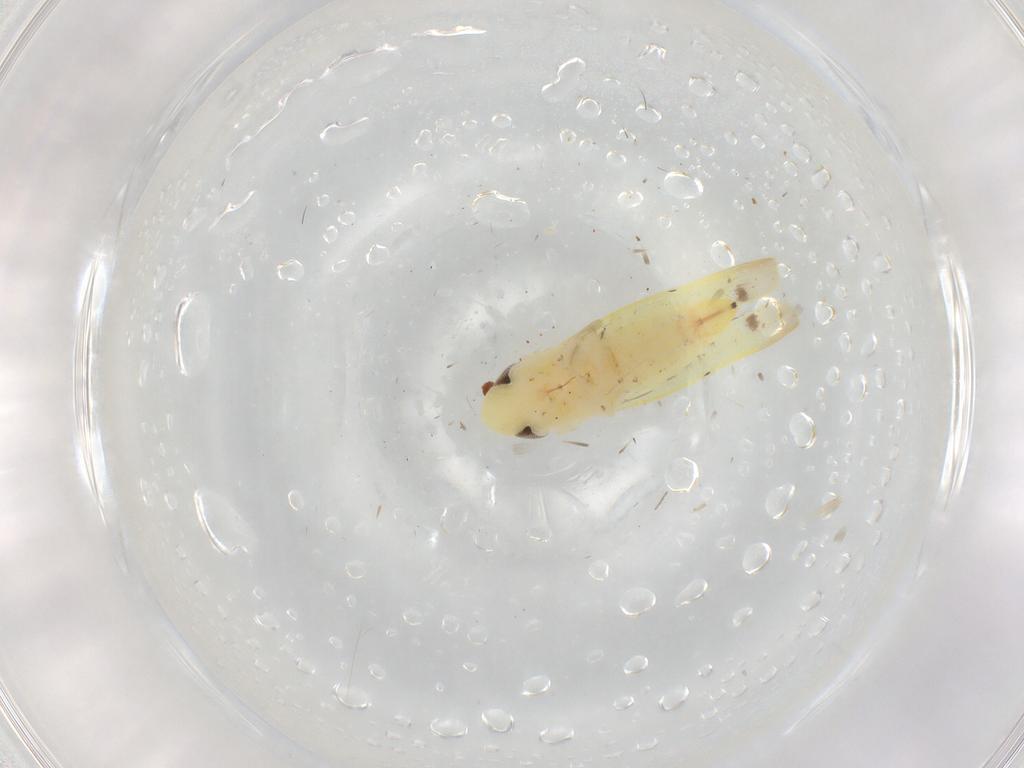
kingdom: Animalia
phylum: Arthropoda
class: Insecta
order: Hemiptera
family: Cicadellidae
